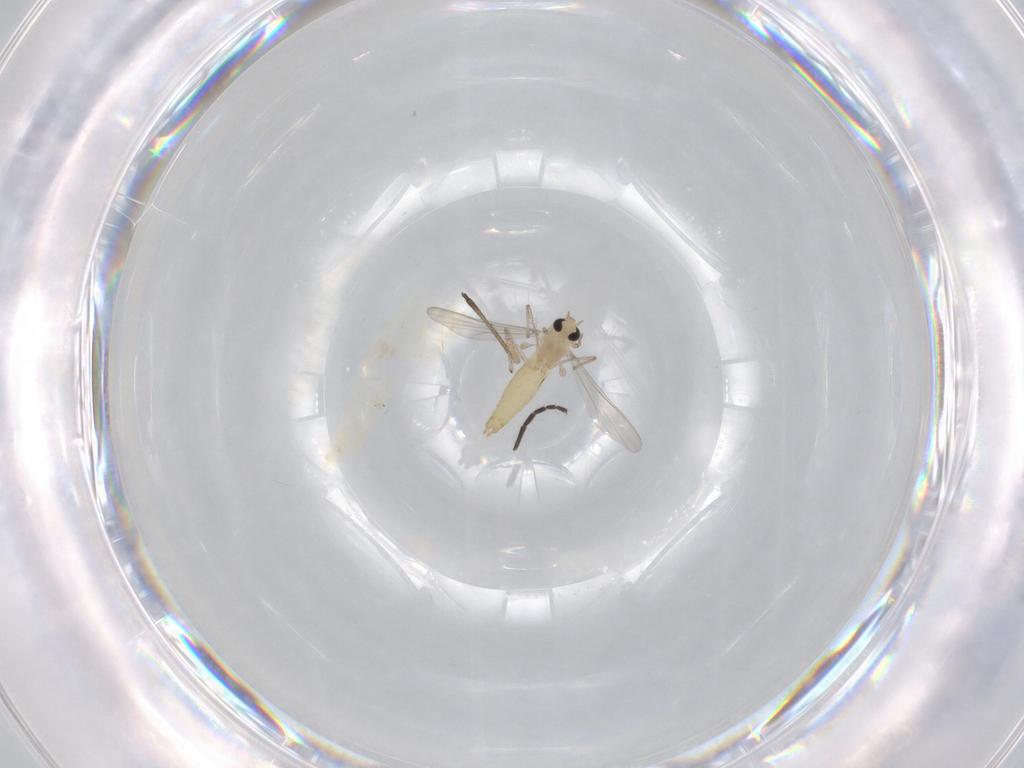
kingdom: Animalia
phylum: Arthropoda
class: Insecta
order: Diptera
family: Sciaridae
